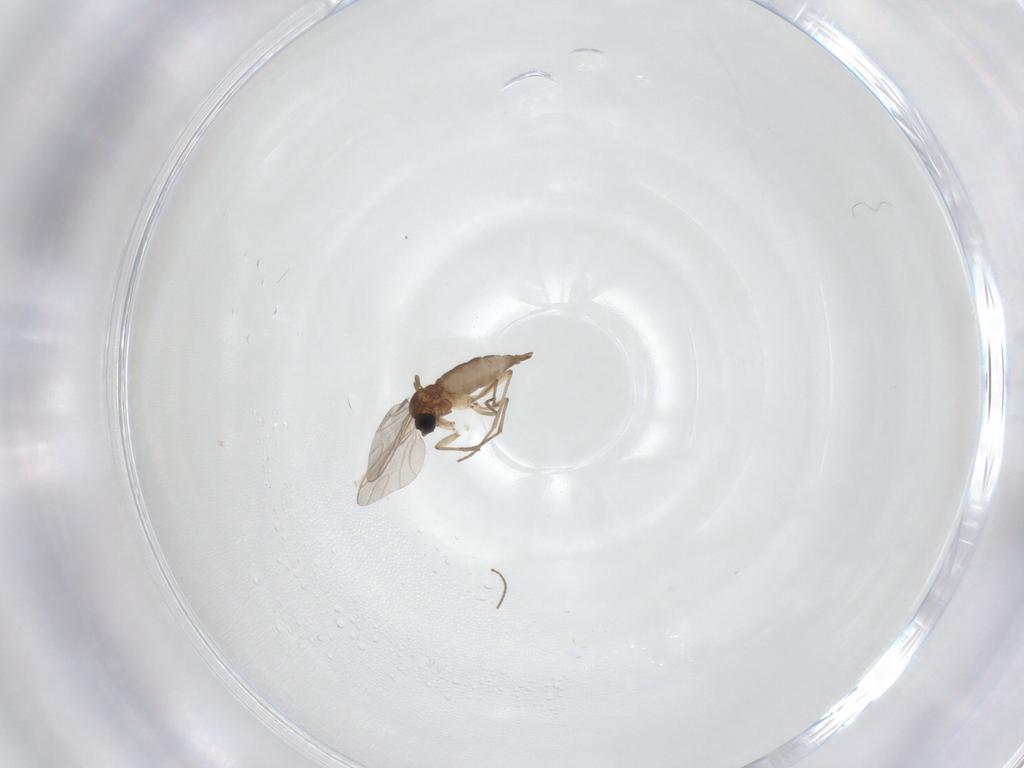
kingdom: Animalia
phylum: Arthropoda
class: Insecta
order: Diptera
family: Sciaridae
